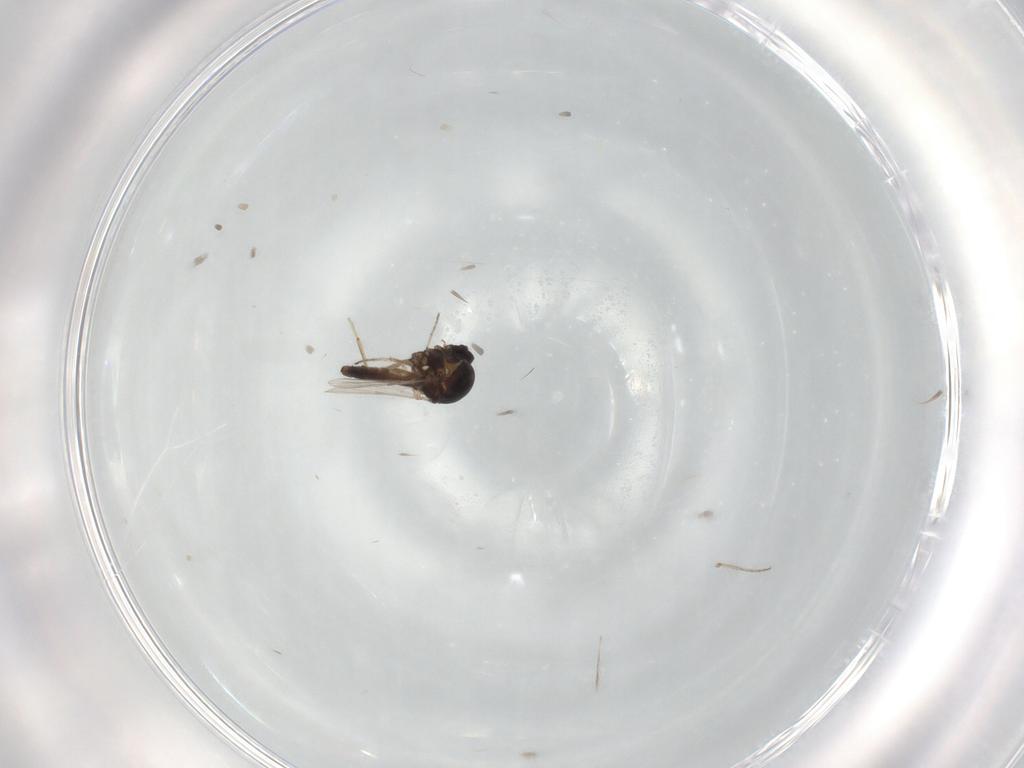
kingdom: Animalia
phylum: Arthropoda
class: Insecta
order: Diptera
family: Ceratopogonidae
